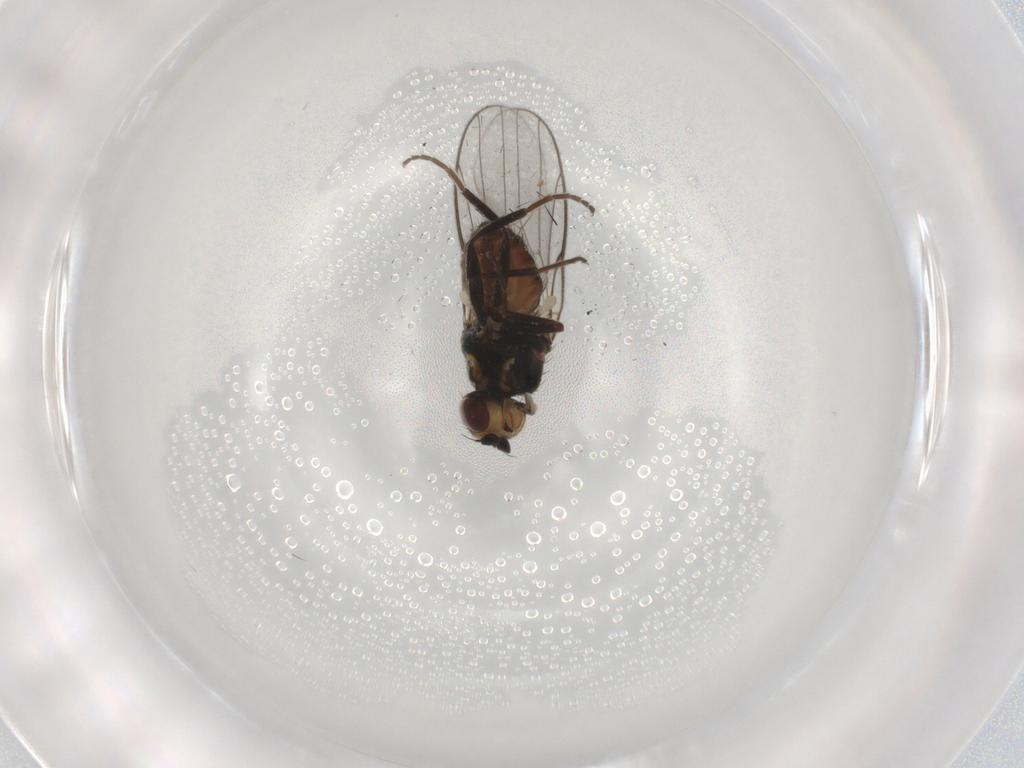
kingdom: Animalia
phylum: Arthropoda
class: Insecta
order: Diptera
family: Chloropidae
